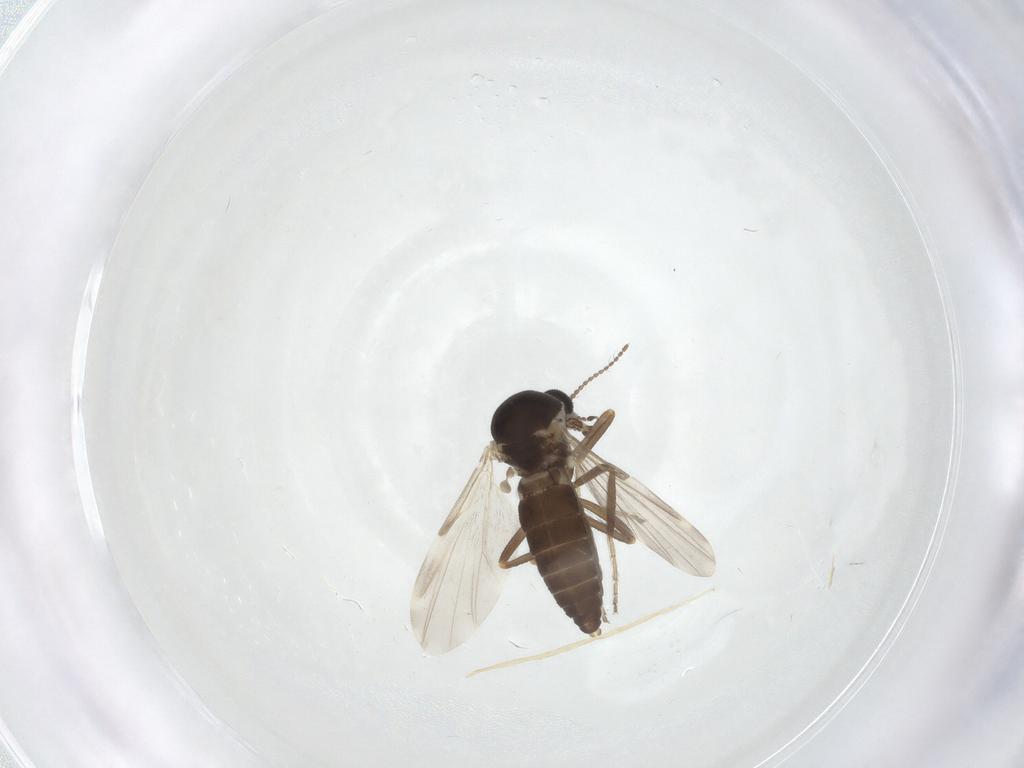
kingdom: Animalia
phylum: Arthropoda
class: Insecta
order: Diptera
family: Ceratopogonidae
